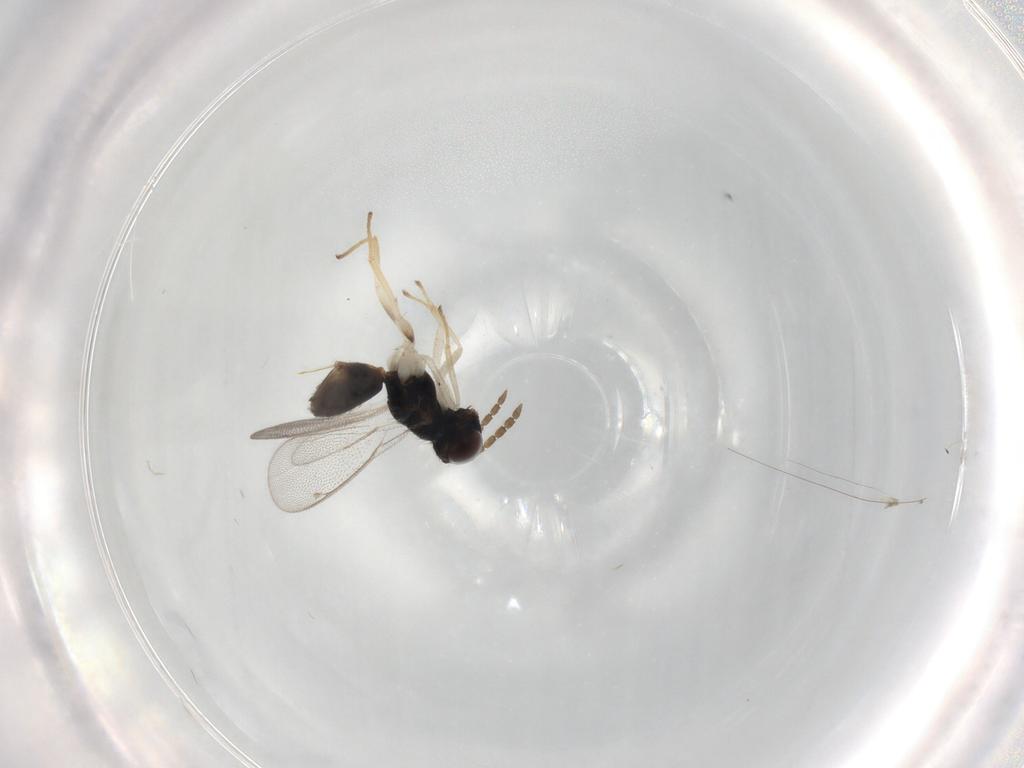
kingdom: Animalia
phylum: Arthropoda
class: Insecta
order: Hymenoptera
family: Eulophidae
